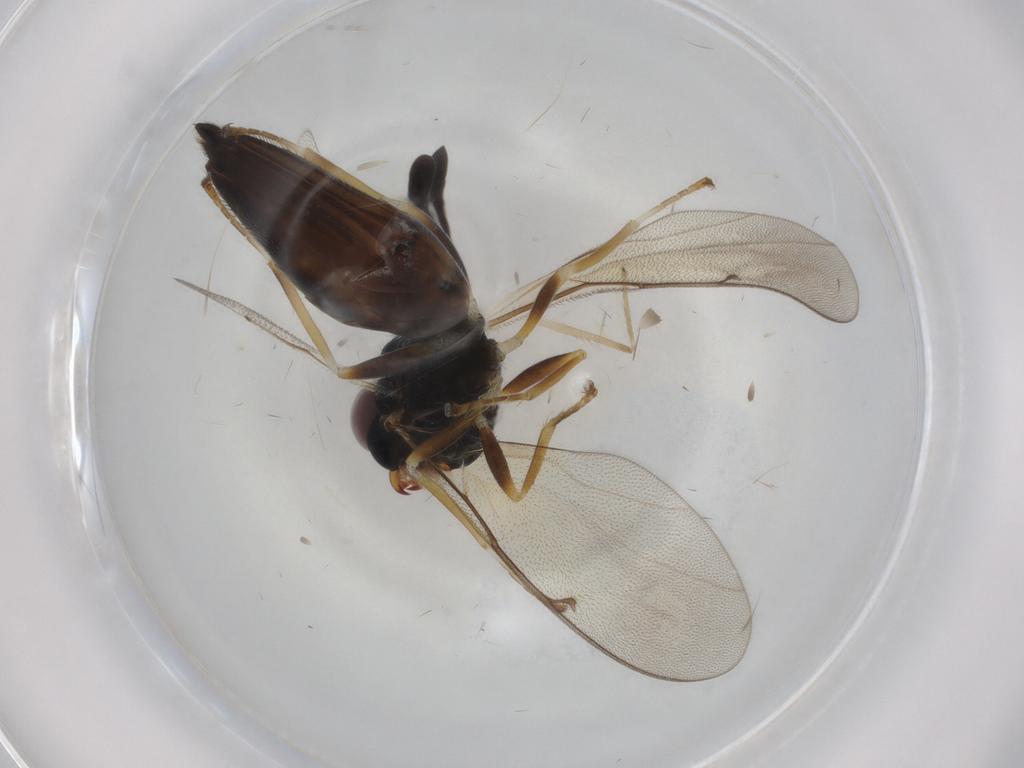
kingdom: Animalia
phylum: Arthropoda
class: Insecta
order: Hymenoptera
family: Pteromalidae
